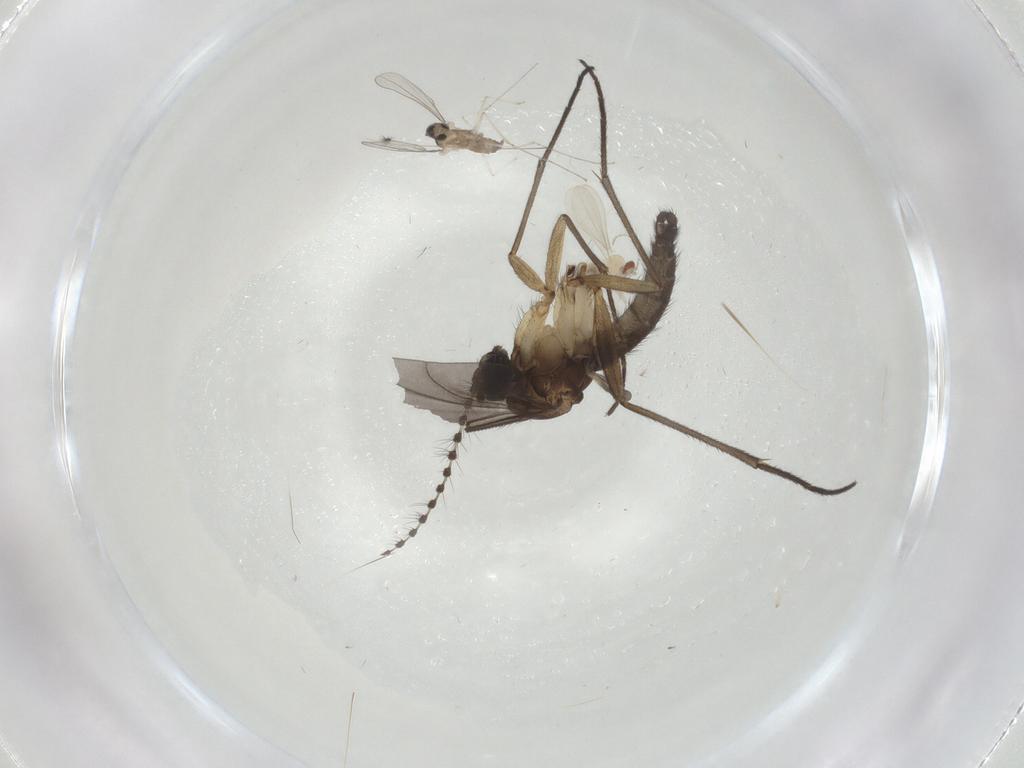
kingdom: Animalia
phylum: Arthropoda
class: Insecta
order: Diptera
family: Sciaridae
